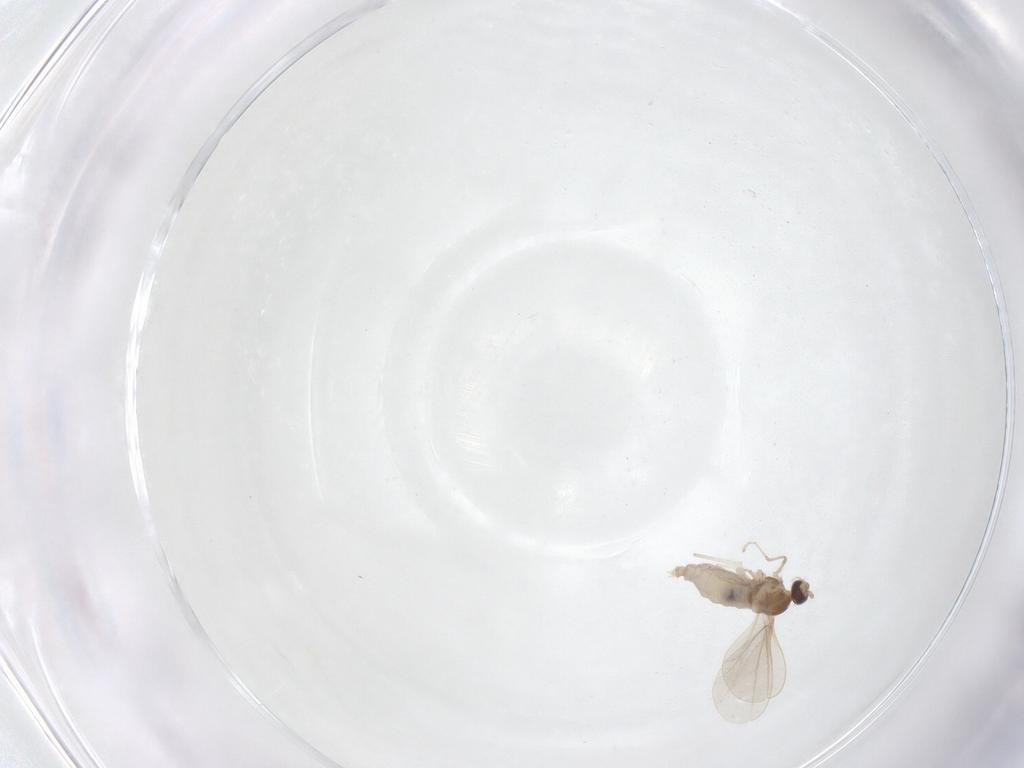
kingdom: Animalia
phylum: Arthropoda
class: Insecta
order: Diptera
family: Cecidomyiidae
